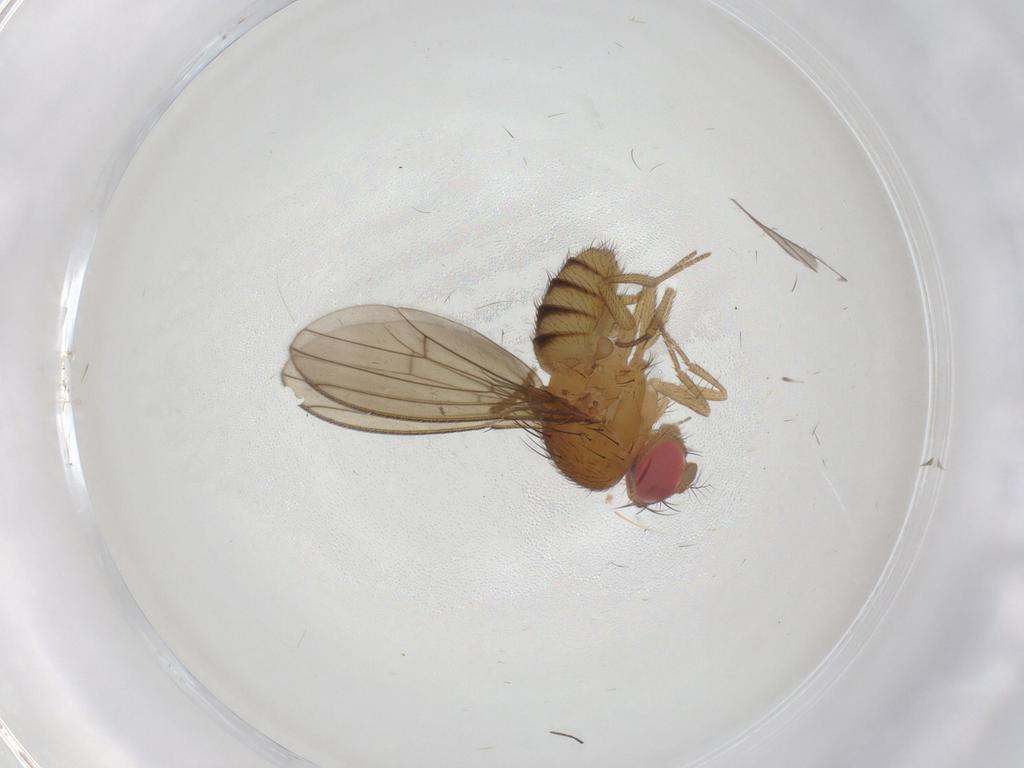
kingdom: Animalia
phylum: Arthropoda
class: Insecta
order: Diptera
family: Drosophilidae
